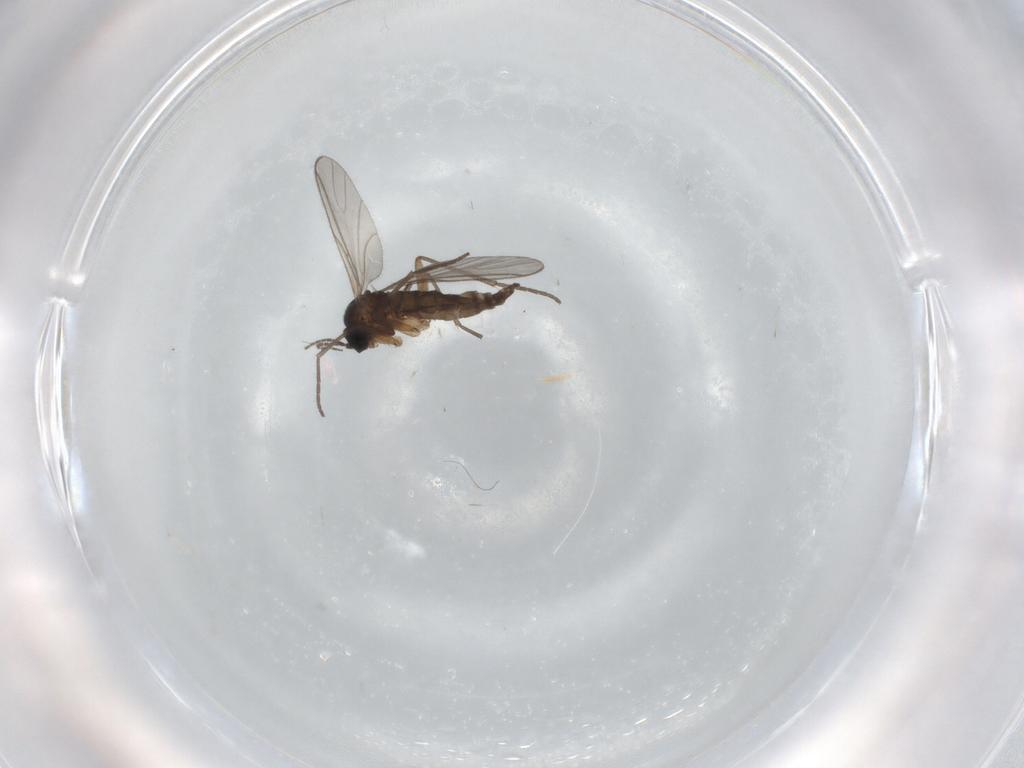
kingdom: Animalia
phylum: Arthropoda
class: Insecta
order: Diptera
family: Sciaridae
